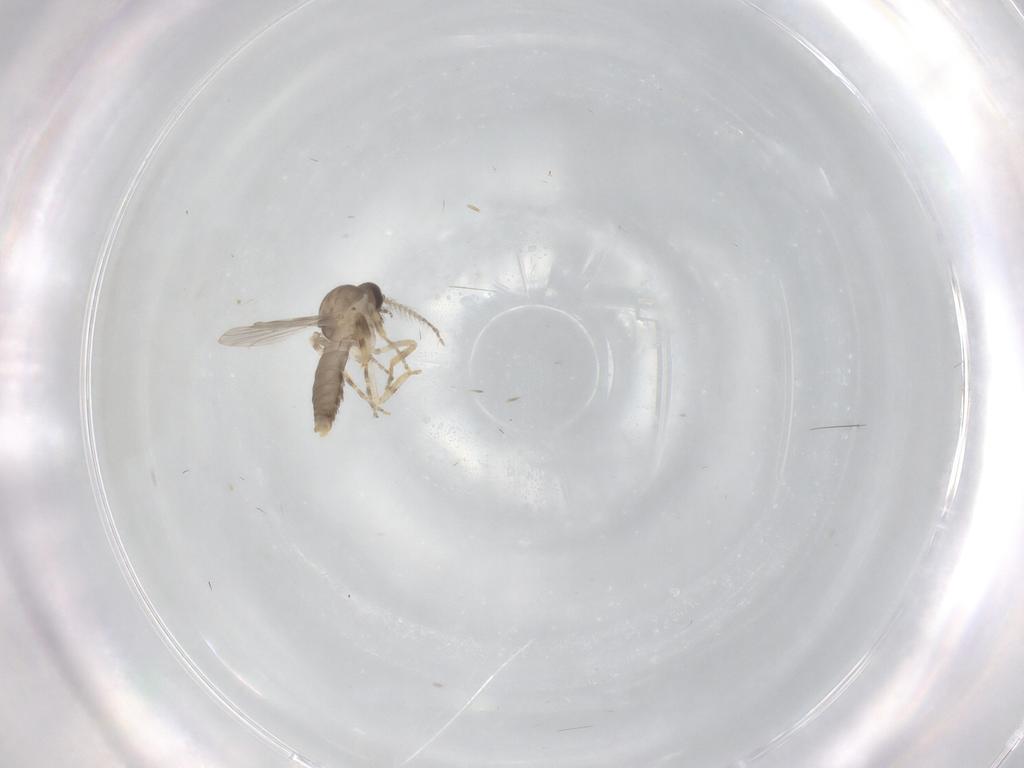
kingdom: Animalia
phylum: Arthropoda
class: Insecta
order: Diptera
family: Ceratopogonidae
